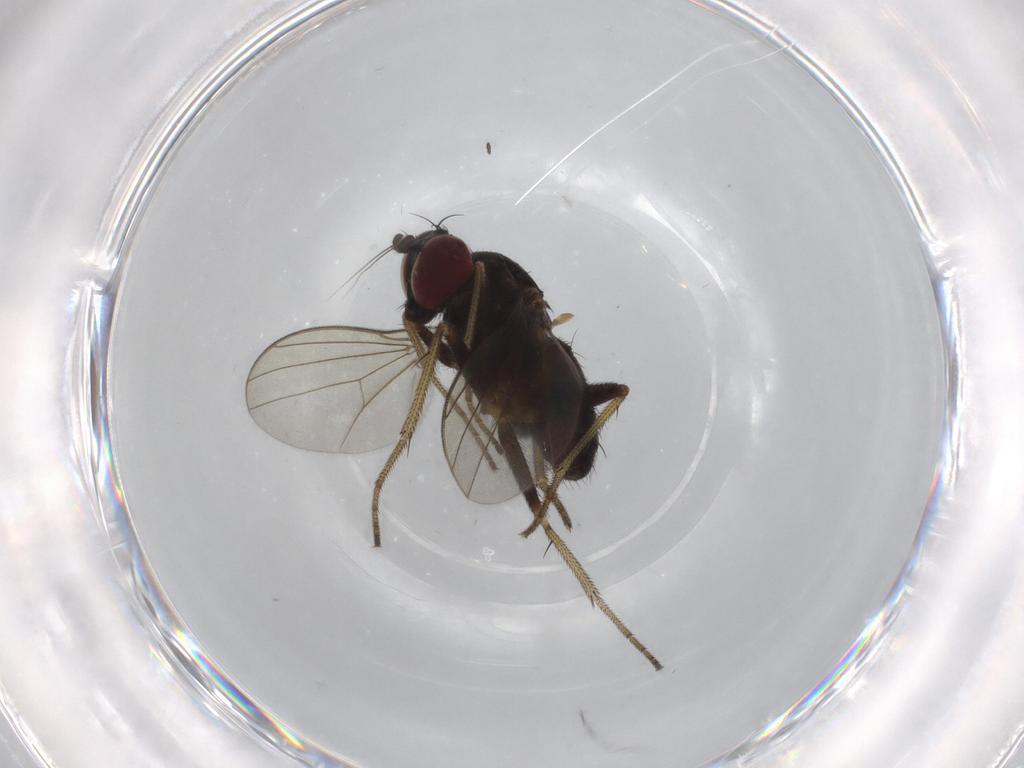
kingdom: Animalia
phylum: Arthropoda
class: Insecta
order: Diptera
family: Dolichopodidae
